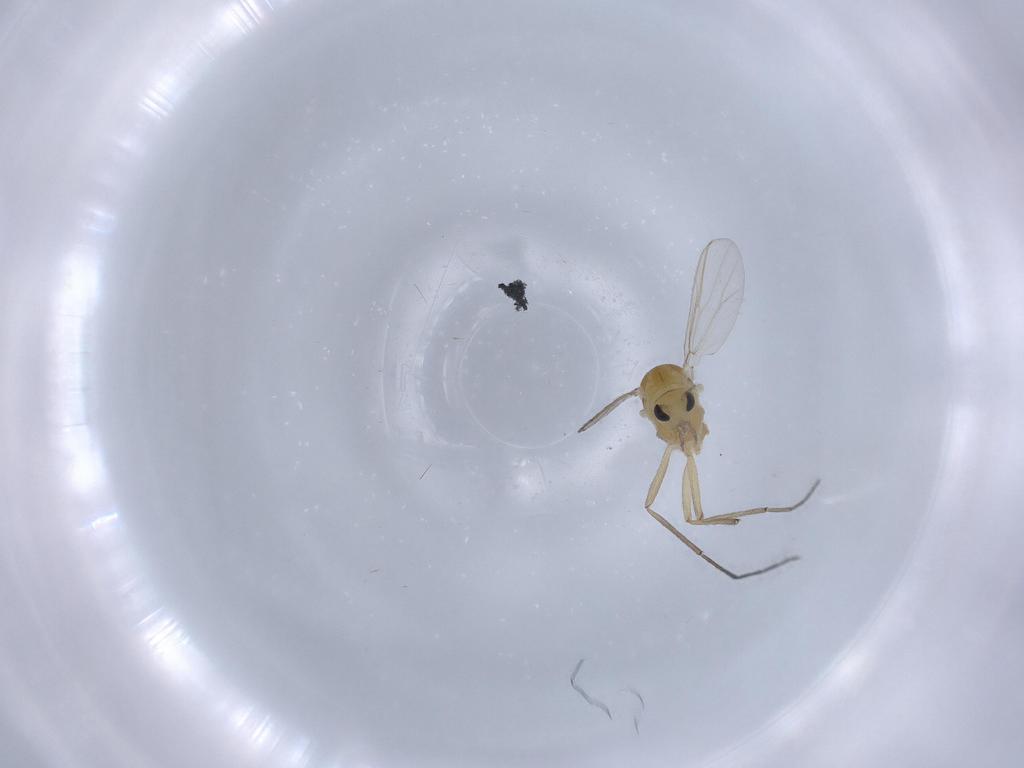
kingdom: Animalia
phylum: Arthropoda
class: Insecta
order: Diptera
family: Chironomidae
